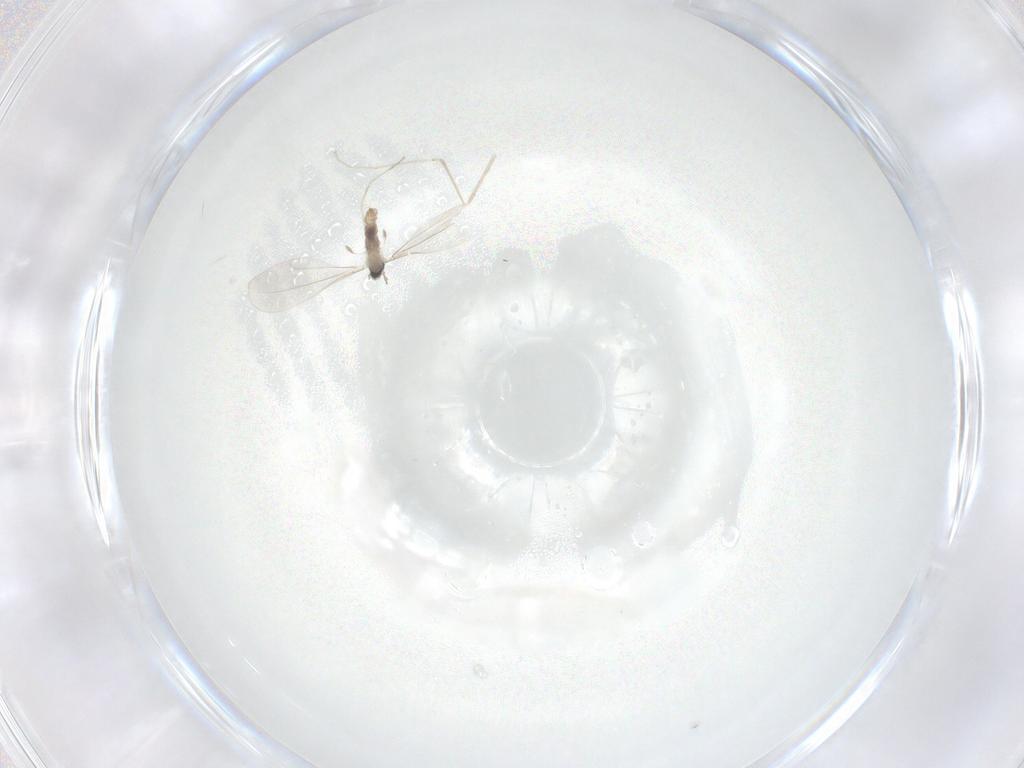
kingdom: Animalia
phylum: Arthropoda
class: Insecta
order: Diptera
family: Cecidomyiidae
